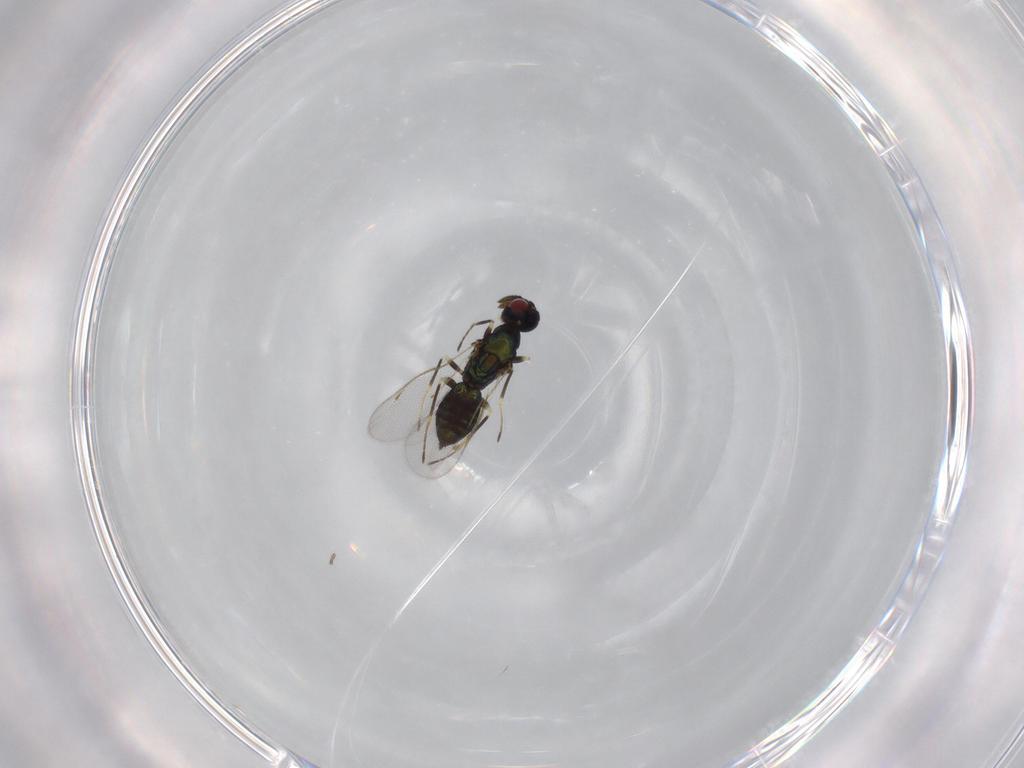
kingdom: Animalia
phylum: Arthropoda
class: Insecta
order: Hymenoptera
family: Eulophidae
